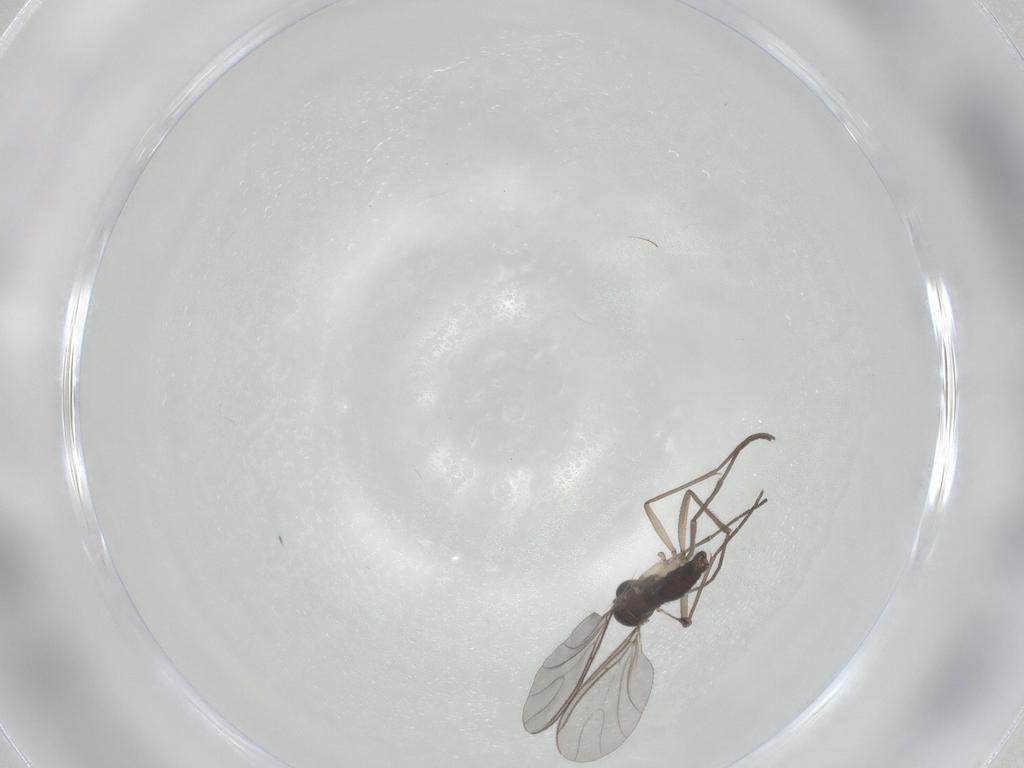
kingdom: Animalia
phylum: Arthropoda
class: Insecta
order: Diptera
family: Sciaridae
